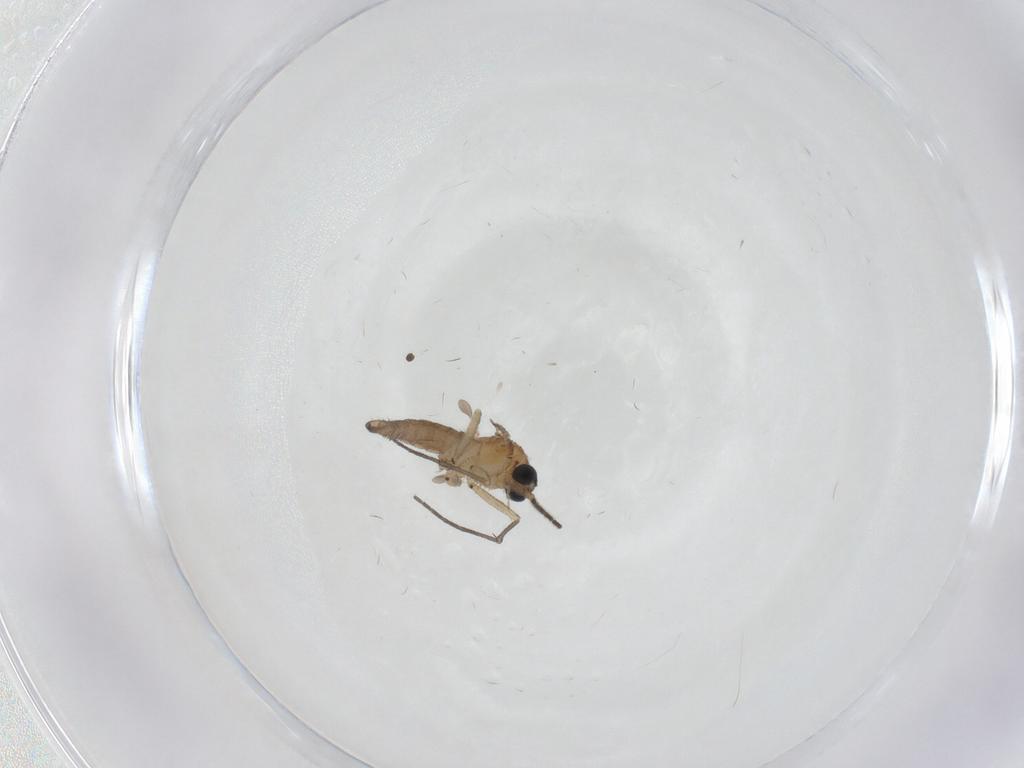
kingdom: Animalia
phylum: Arthropoda
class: Insecta
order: Diptera
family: Sciaridae
